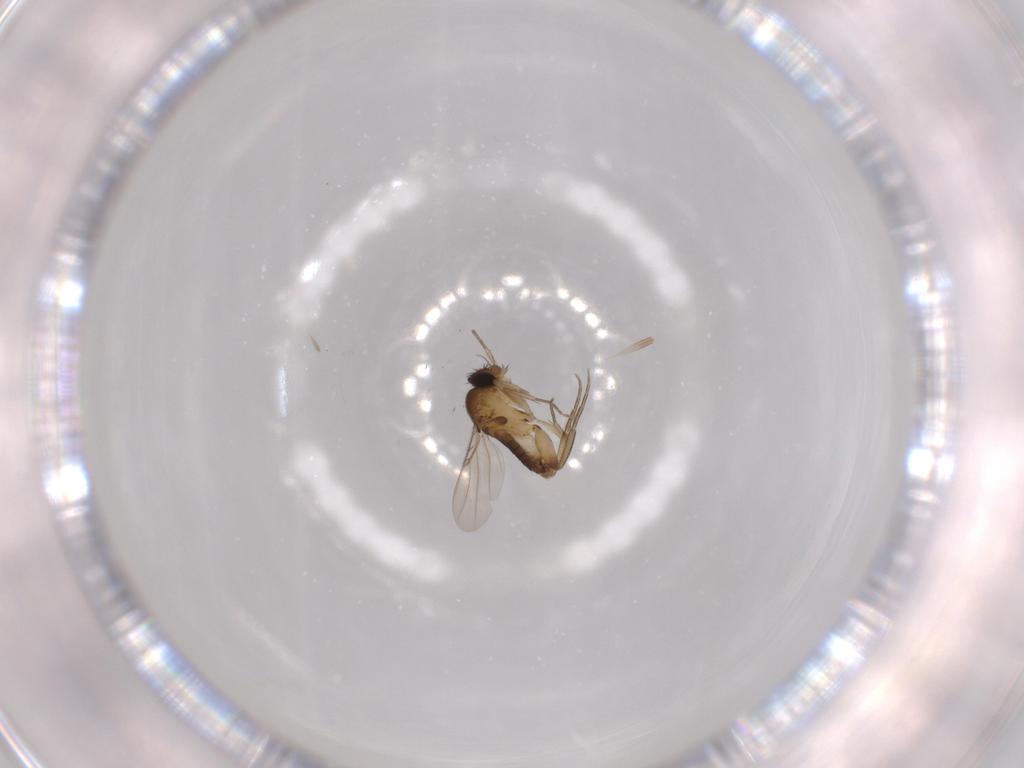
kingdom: Animalia
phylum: Arthropoda
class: Insecta
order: Diptera
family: Phoridae
